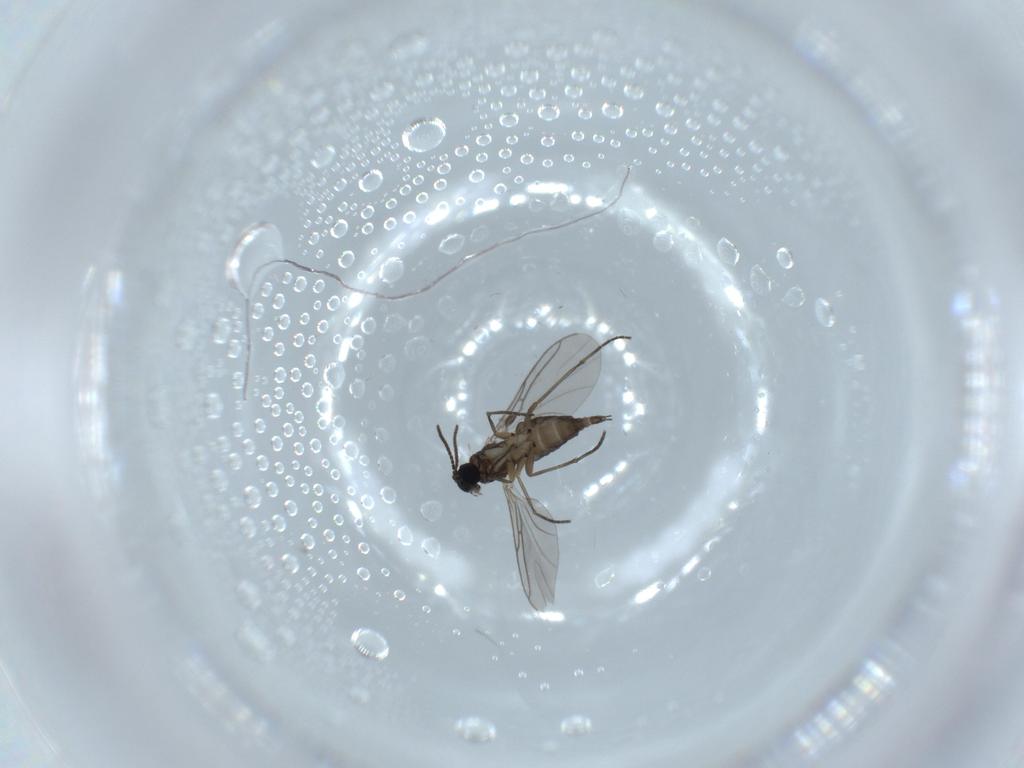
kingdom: Animalia
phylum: Arthropoda
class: Insecta
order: Diptera
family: Sciaridae
